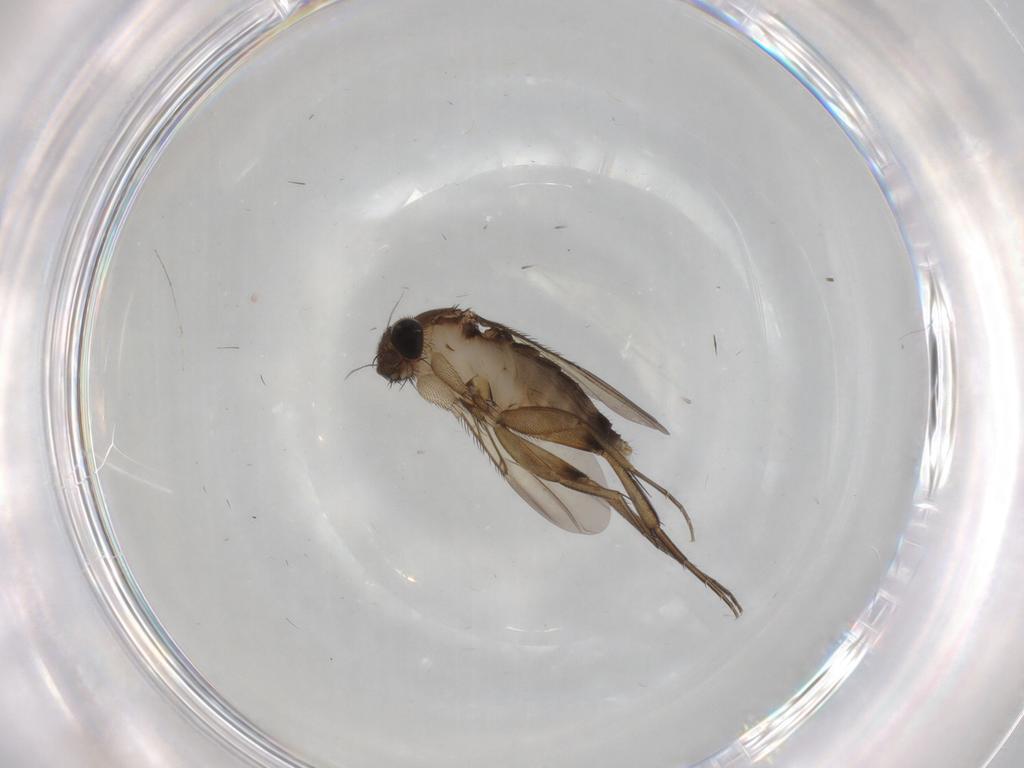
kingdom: Animalia
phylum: Arthropoda
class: Insecta
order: Diptera
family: Phoridae
